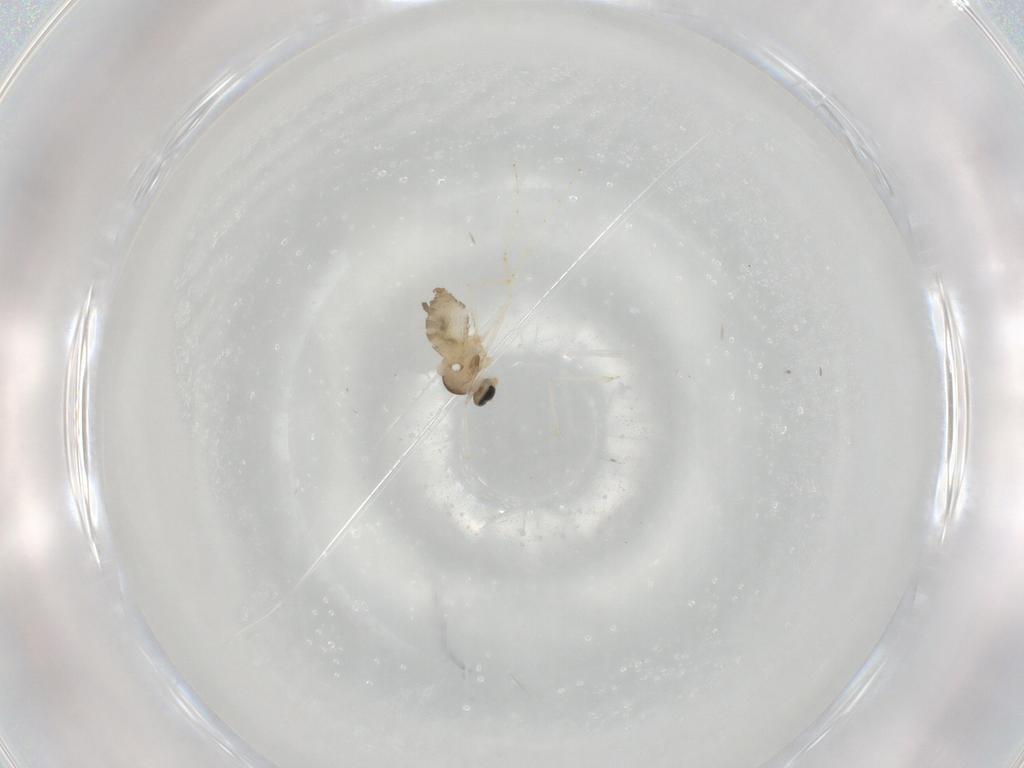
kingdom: Animalia
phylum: Arthropoda
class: Insecta
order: Diptera
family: Cecidomyiidae
